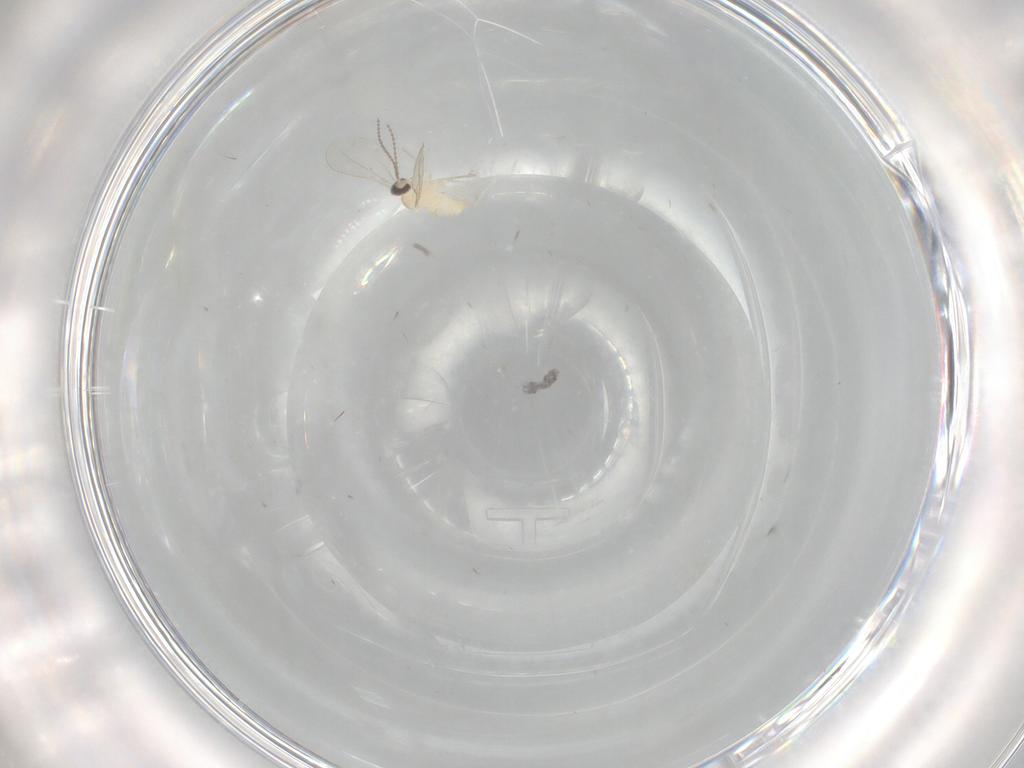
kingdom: Animalia
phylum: Arthropoda
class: Insecta
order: Diptera
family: Cecidomyiidae
